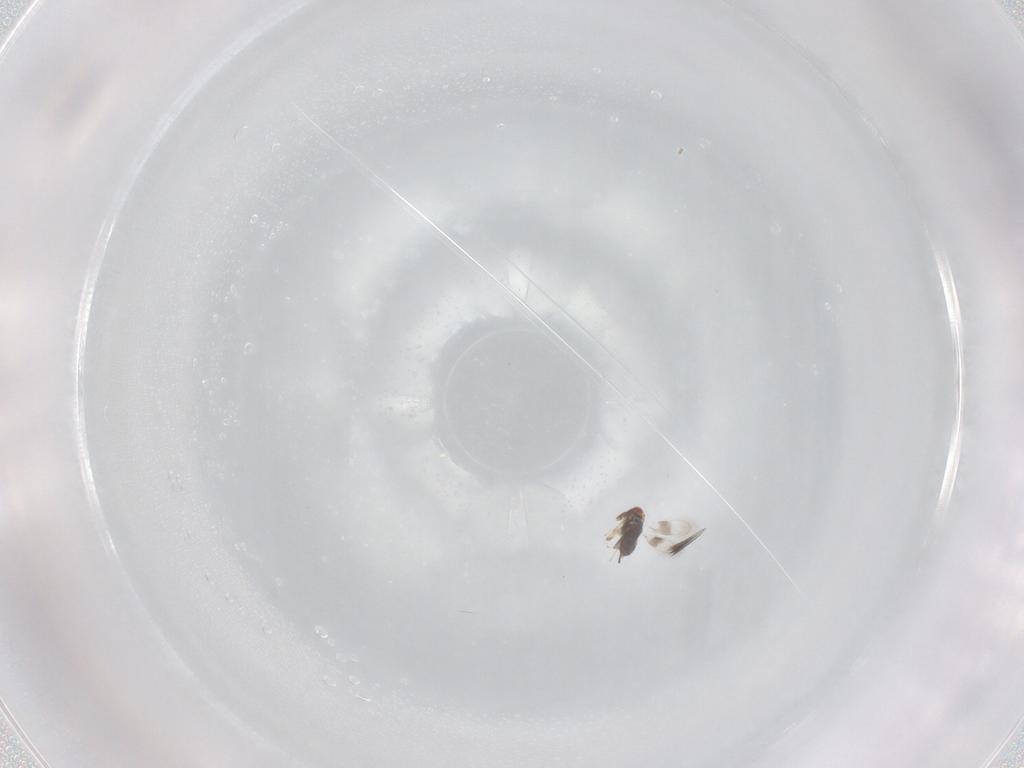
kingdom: Animalia
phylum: Arthropoda
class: Insecta
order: Hymenoptera
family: Azotidae
